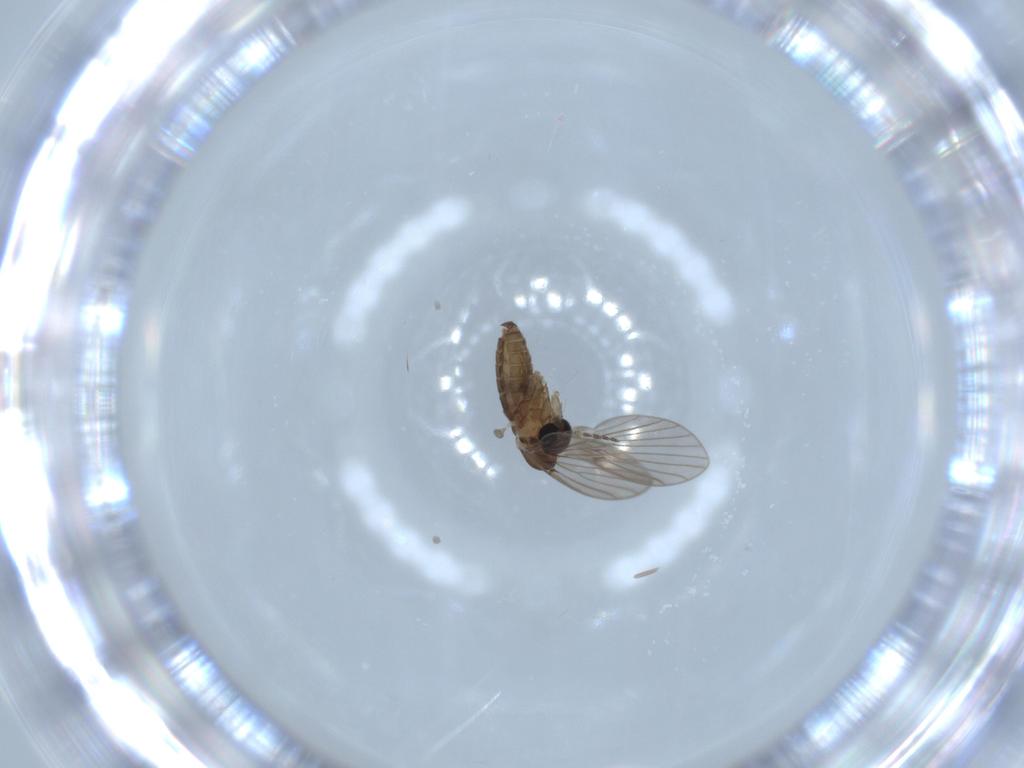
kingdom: Animalia
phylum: Arthropoda
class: Insecta
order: Diptera
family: Psychodidae
